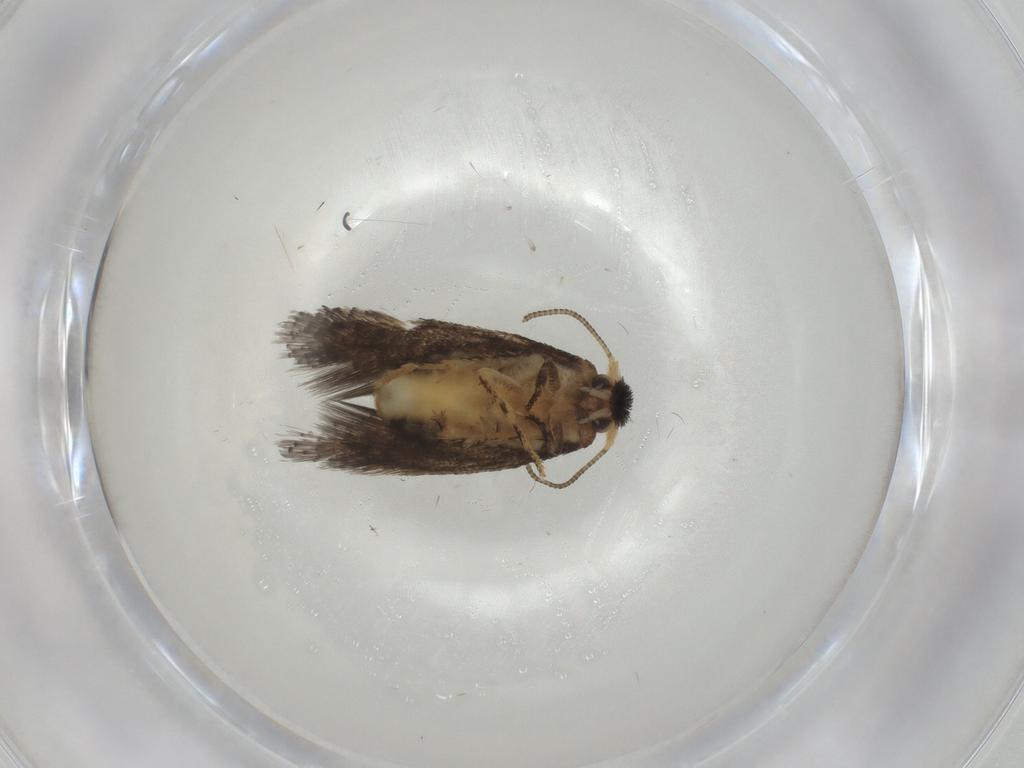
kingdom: Animalia
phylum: Arthropoda
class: Insecta
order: Lepidoptera
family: Nepticulidae
